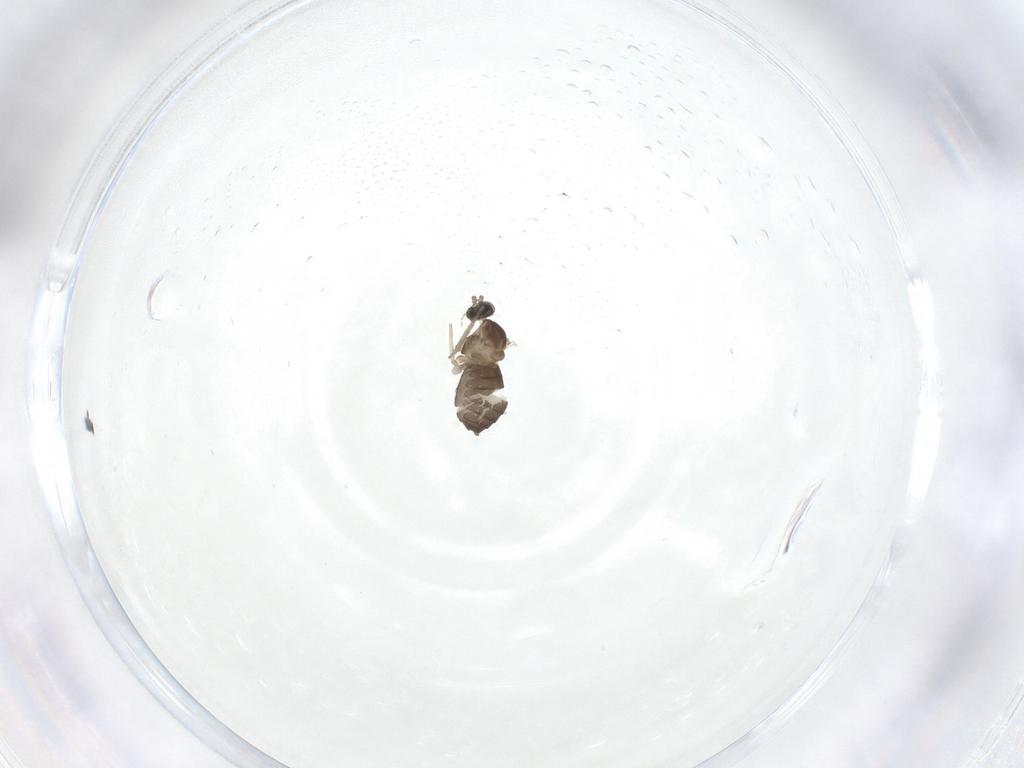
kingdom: Animalia
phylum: Arthropoda
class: Insecta
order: Diptera
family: Cecidomyiidae
